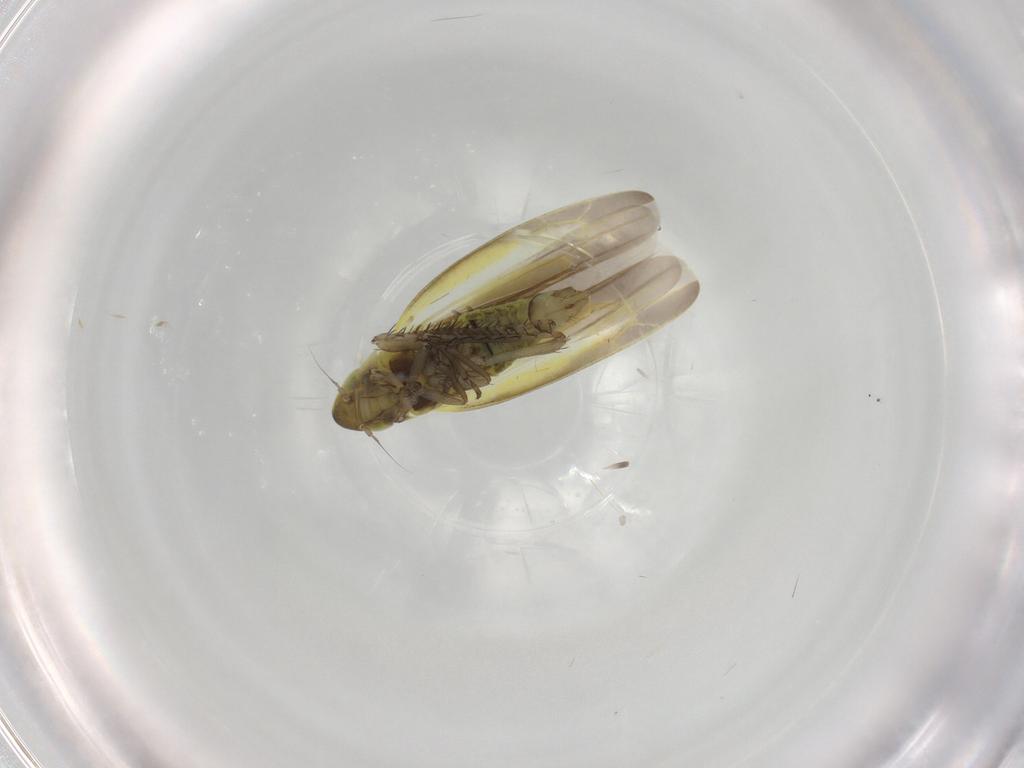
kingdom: Animalia
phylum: Arthropoda
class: Insecta
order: Hemiptera
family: Cicadellidae
